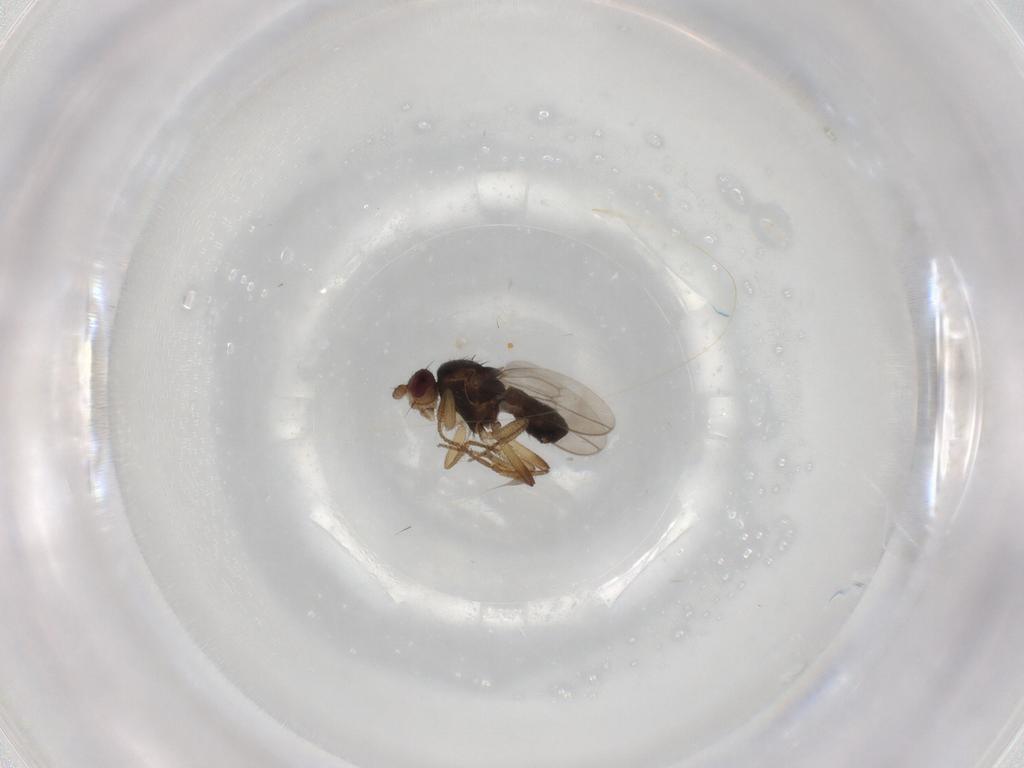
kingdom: Animalia
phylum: Arthropoda
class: Insecta
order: Diptera
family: Sphaeroceridae
